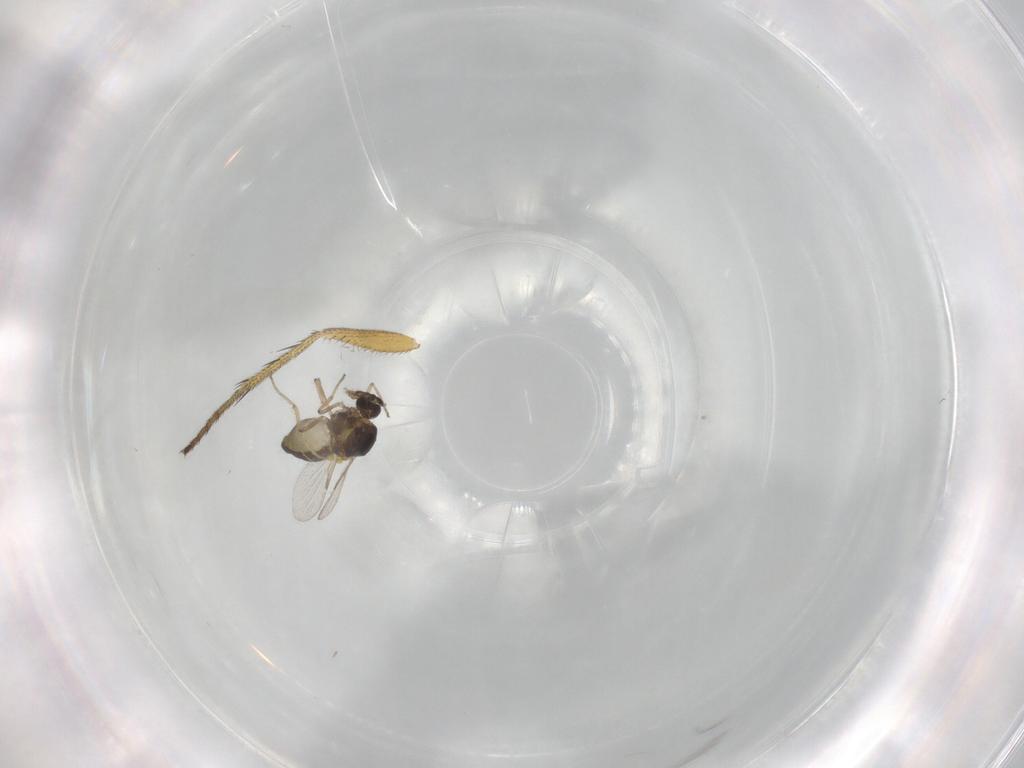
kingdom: Animalia
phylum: Arthropoda
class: Insecta
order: Diptera
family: Ceratopogonidae
